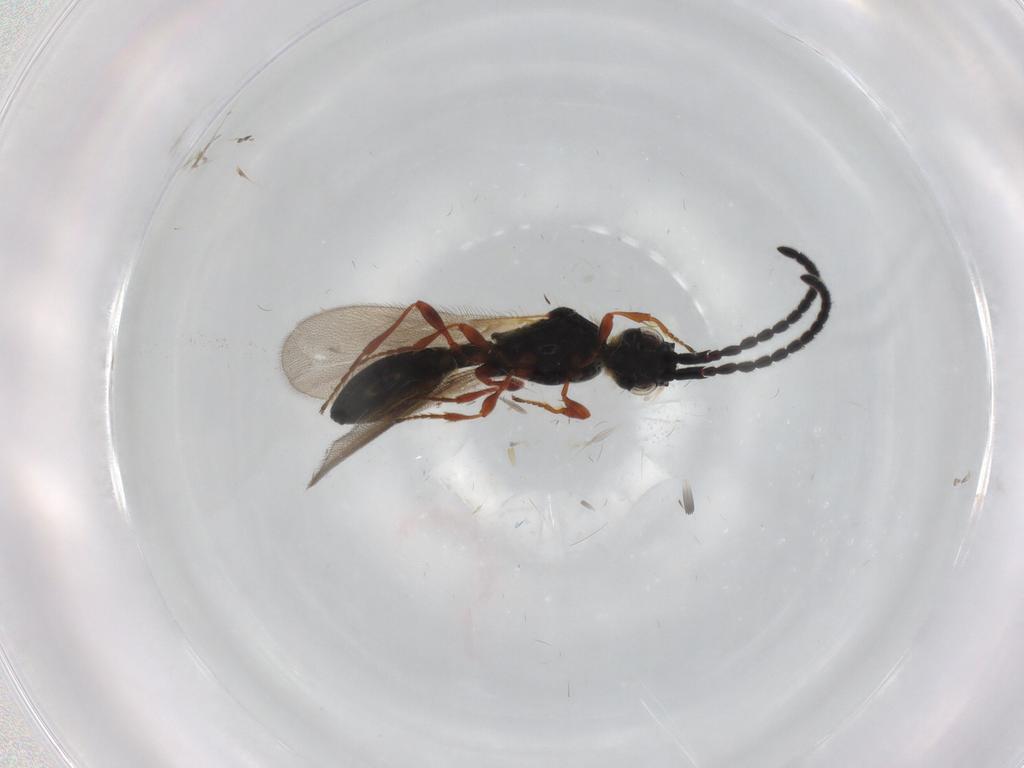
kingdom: Animalia
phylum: Arthropoda
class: Insecta
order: Hymenoptera
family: Diapriidae
